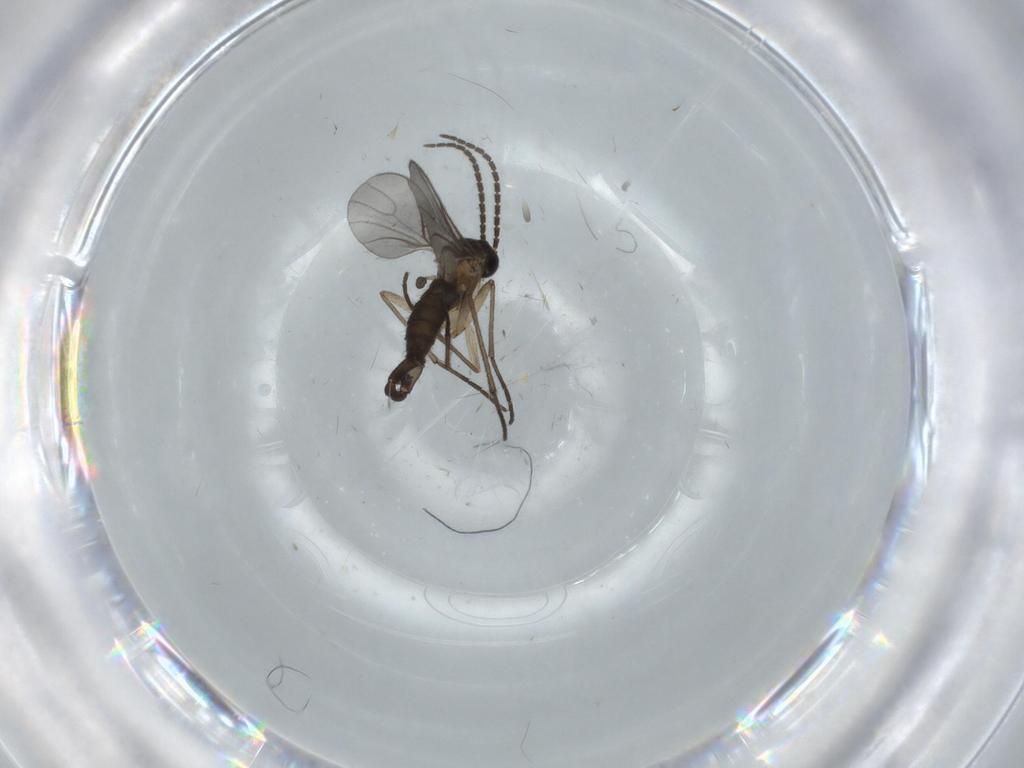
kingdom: Animalia
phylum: Arthropoda
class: Insecta
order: Diptera
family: Sciaridae
